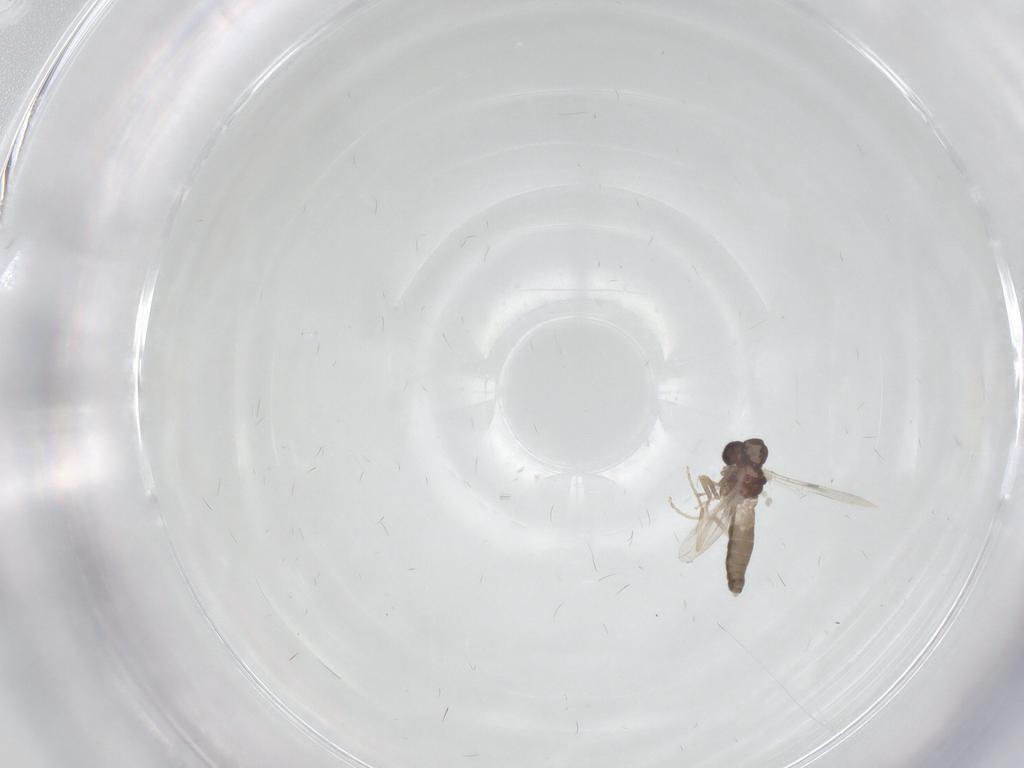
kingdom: Animalia
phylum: Arthropoda
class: Insecta
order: Diptera
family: Ceratopogonidae
